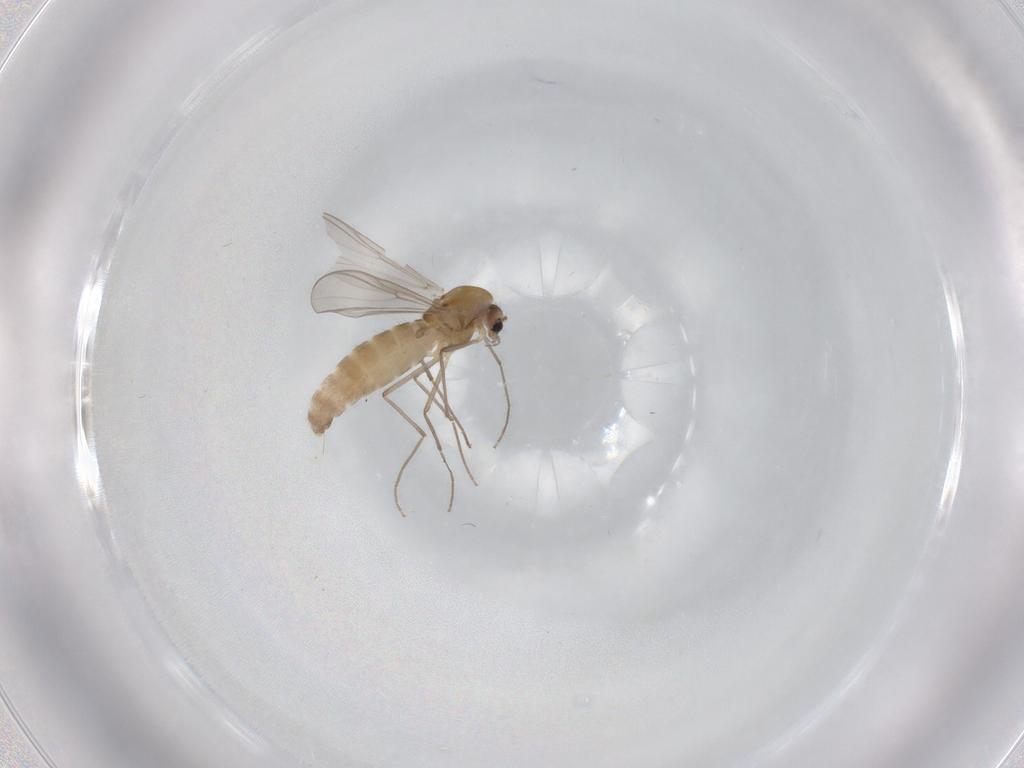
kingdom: Animalia
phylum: Arthropoda
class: Insecta
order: Diptera
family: Chironomidae
